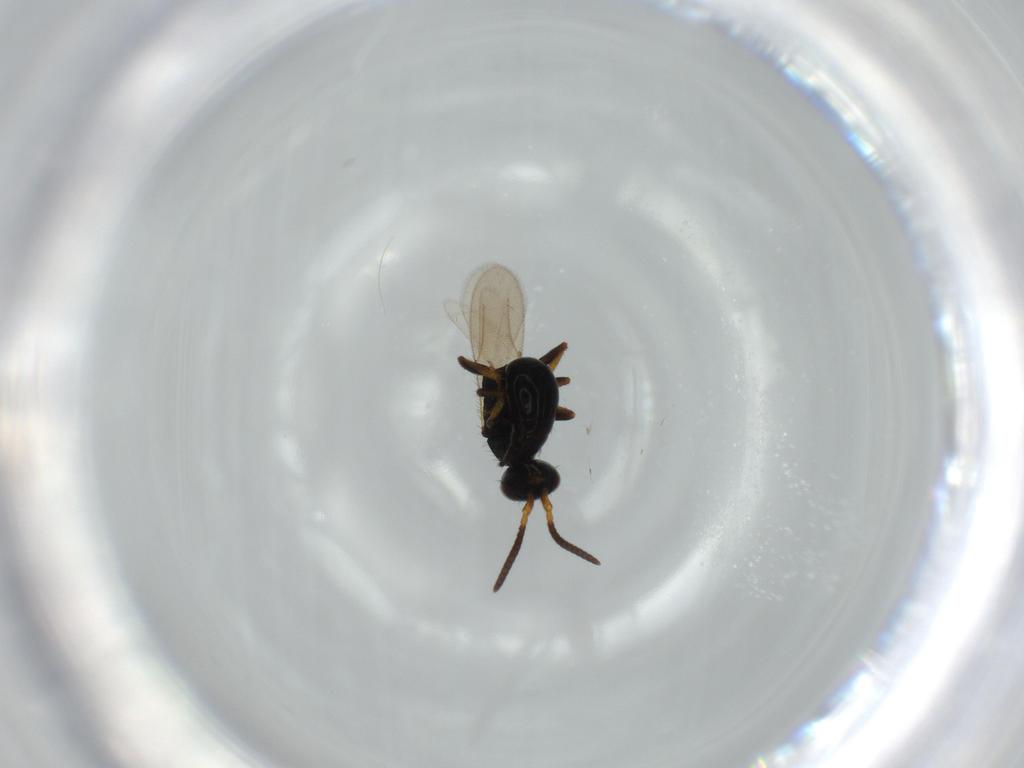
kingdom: Animalia
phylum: Arthropoda
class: Insecta
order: Hymenoptera
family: Bethylidae
